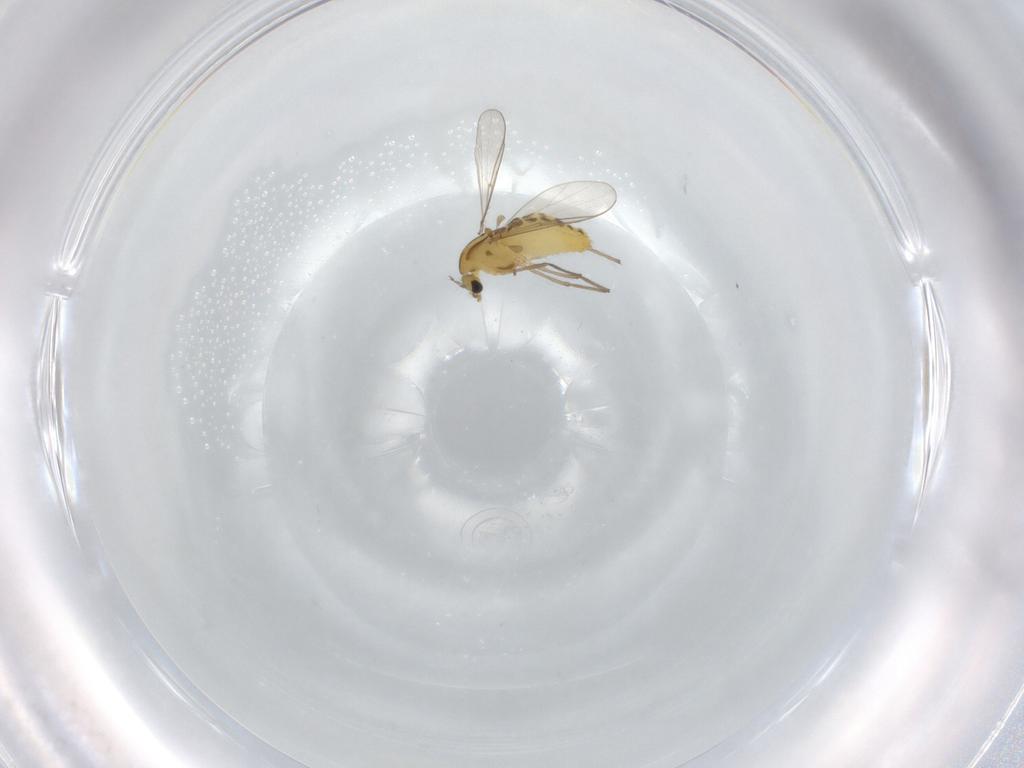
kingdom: Animalia
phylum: Arthropoda
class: Insecta
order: Diptera
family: Chironomidae
